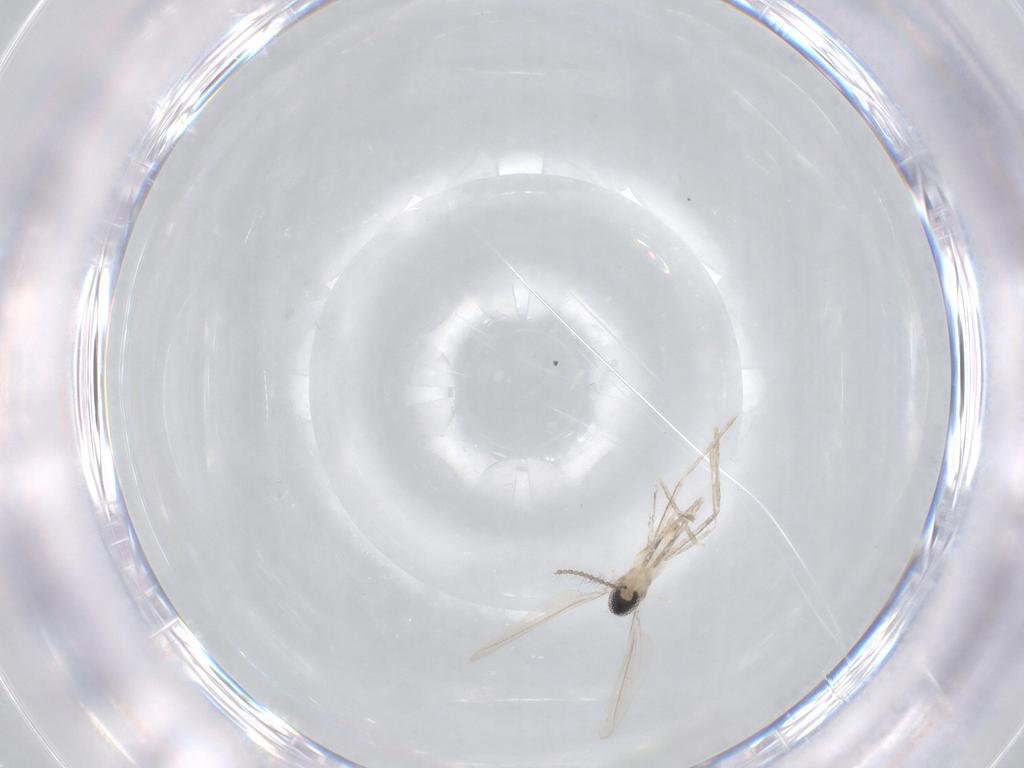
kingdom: Animalia
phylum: Arthropoda
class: Insecta
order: Diptera
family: Cecidomyiidae
